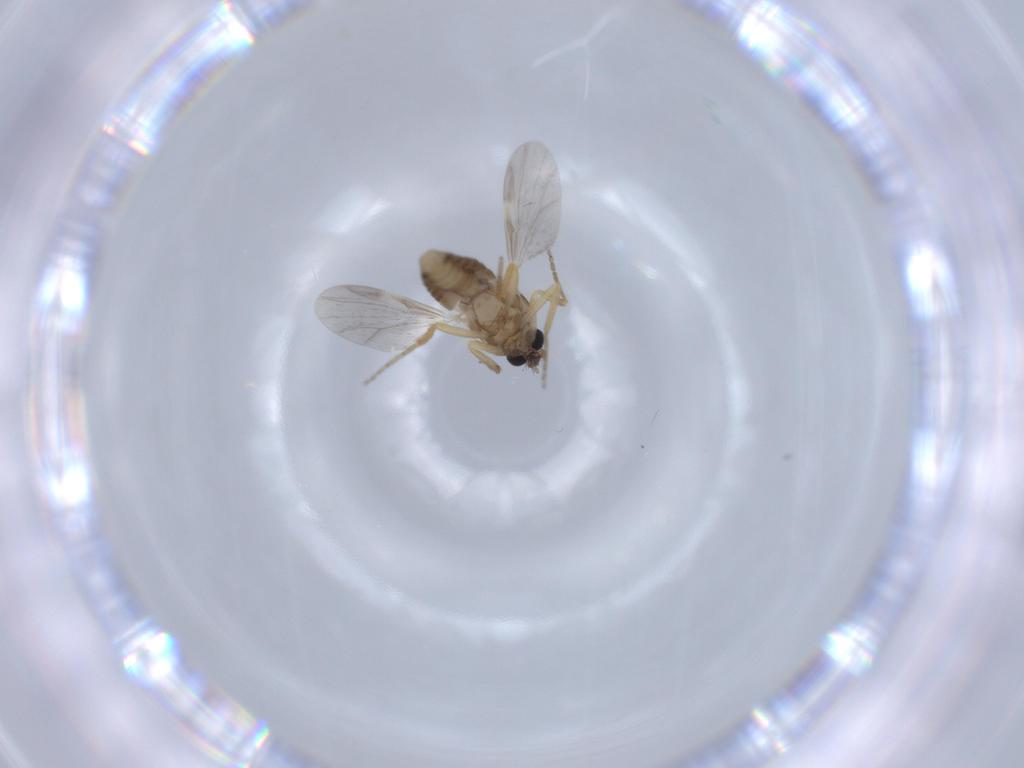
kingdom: Animalia
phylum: Arthropoda
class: Insecta
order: Diptera
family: Ceratopogonidae
